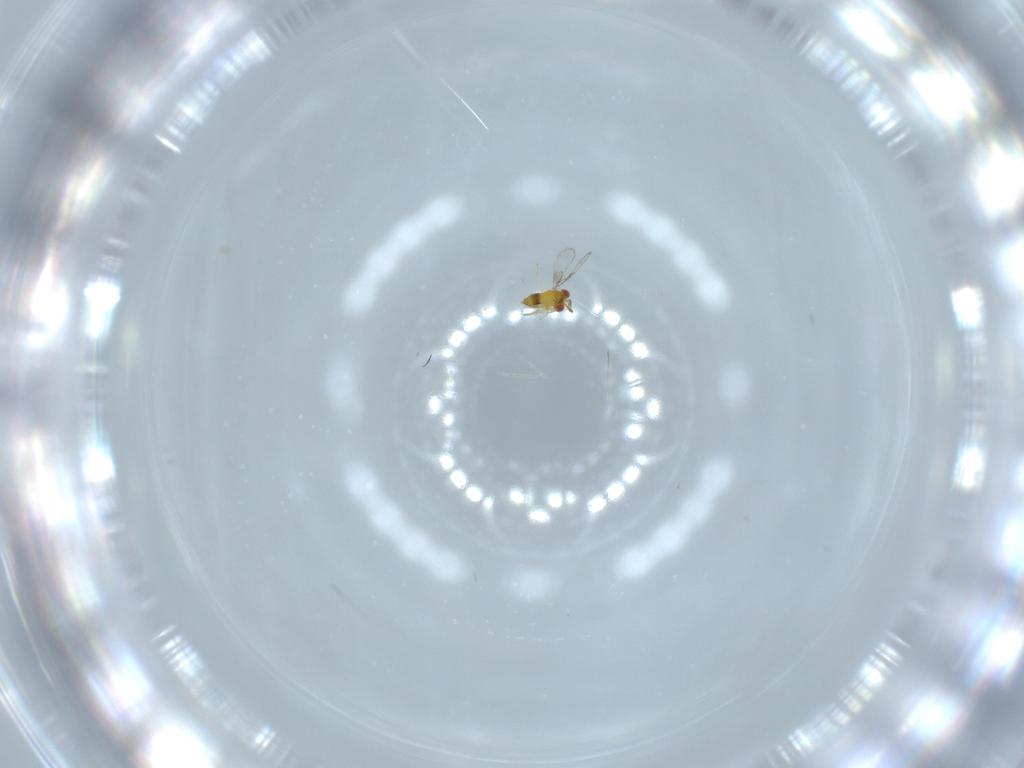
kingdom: Animalia
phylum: Arthropoda
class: Insecta
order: Hymenoptera
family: Trichogrammatidae
